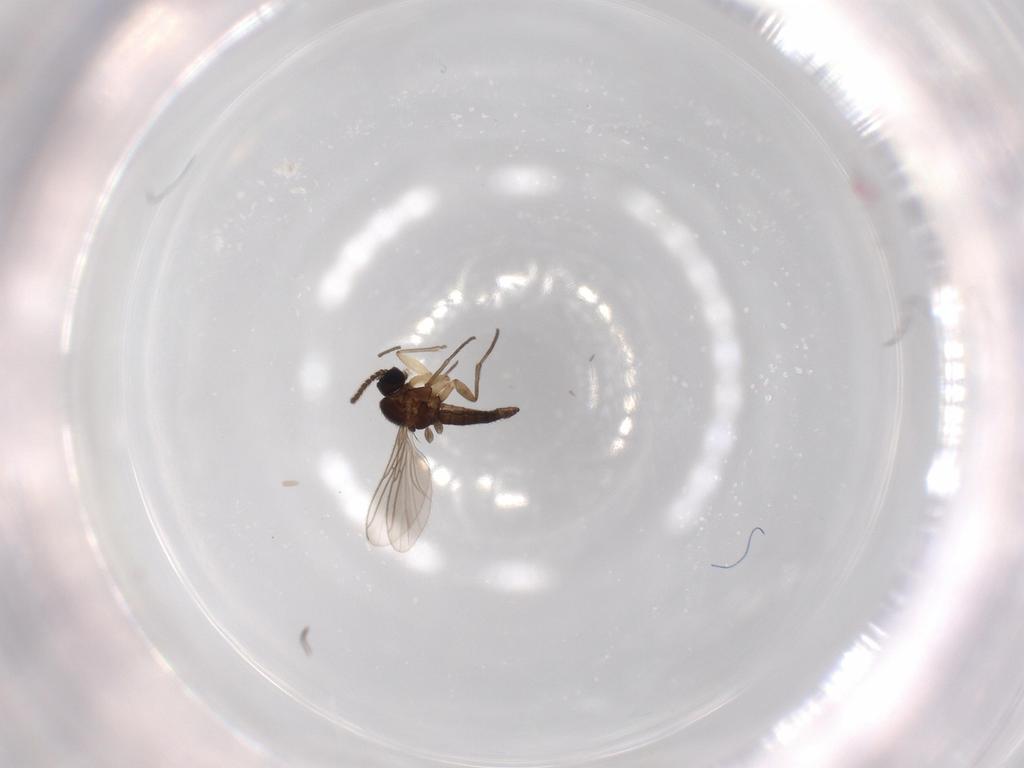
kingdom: Animalia
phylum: Arthropoda
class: Insecta
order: Diptera
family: Sciaridae
